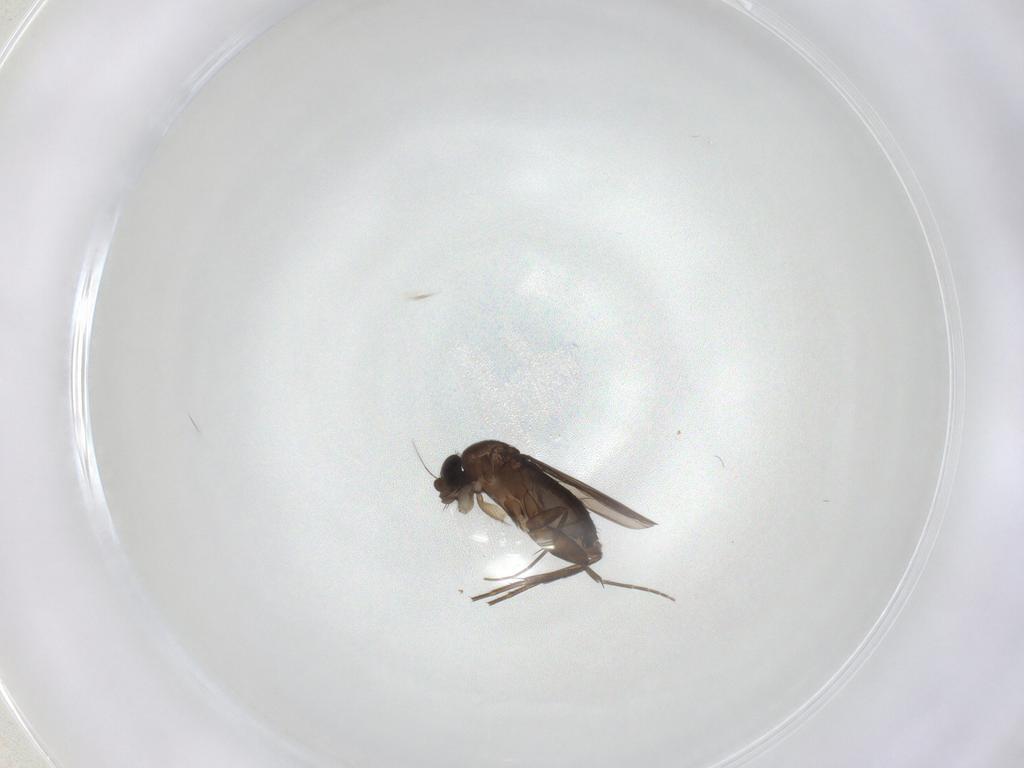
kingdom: Animalia
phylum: Arthropoda
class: Insecta
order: Diptera
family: Phoridae
